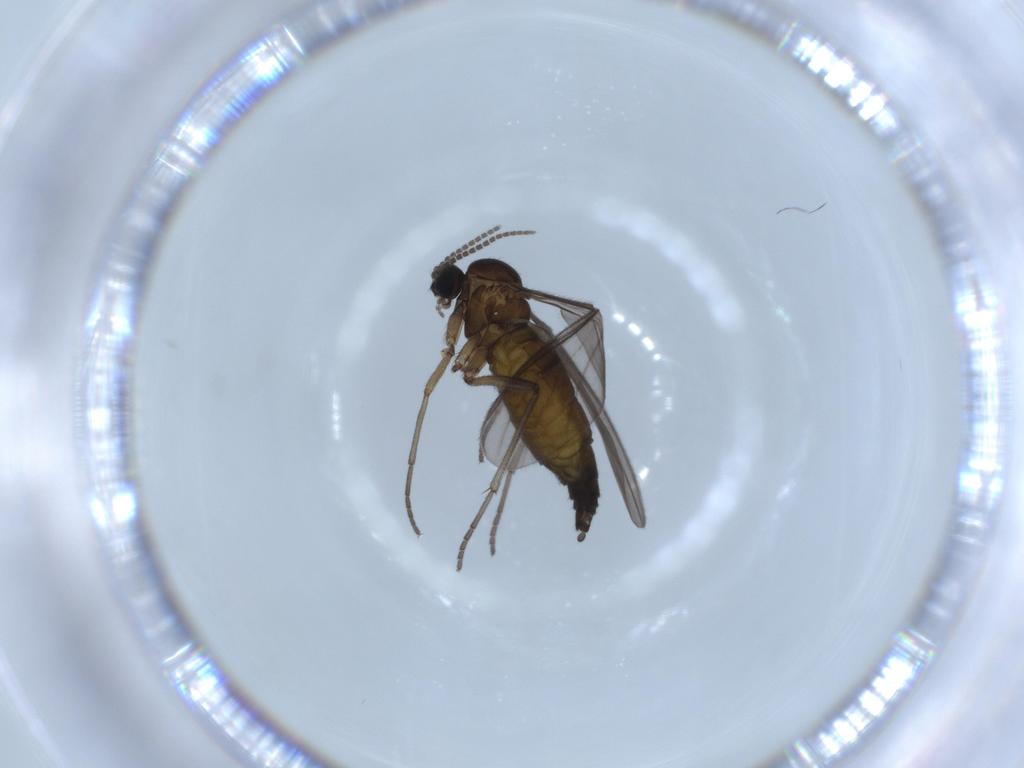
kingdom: Animalia
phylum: Arthropoda
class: Insecta
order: Diptera
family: Sciaridae
